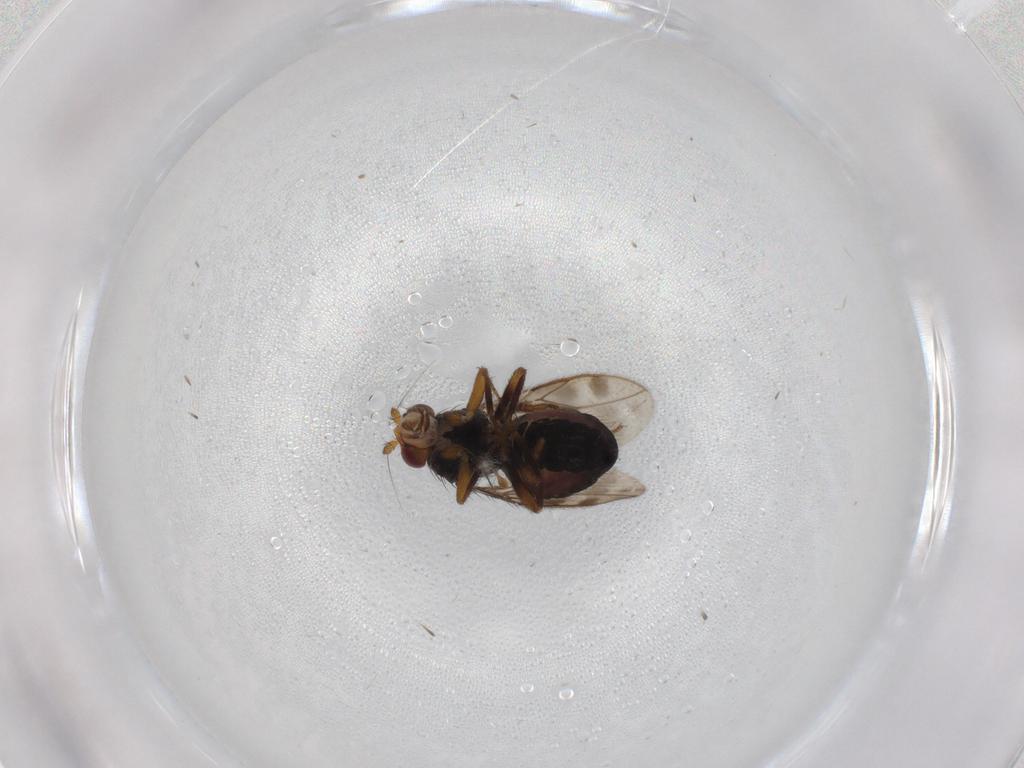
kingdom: Animalia
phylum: Arthropoda
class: Insecta
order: Diptera
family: Sphaeroceridae
